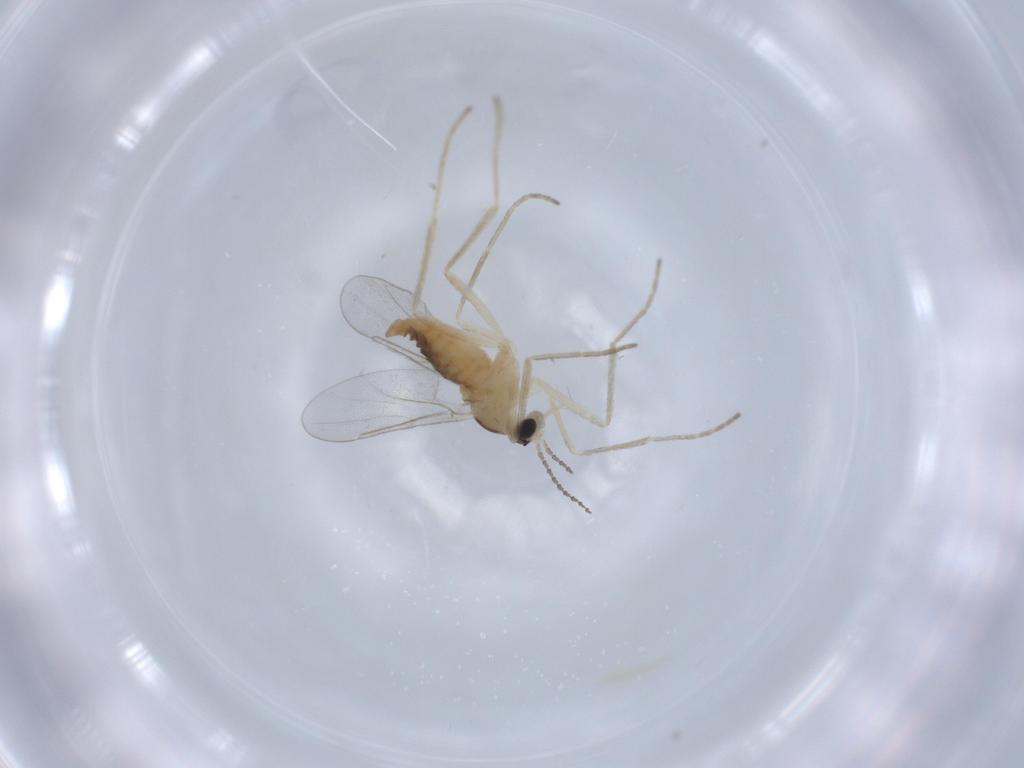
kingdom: Animalia
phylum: Arthropoda
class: Insecta
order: Diptera
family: Cecidomyiidae
